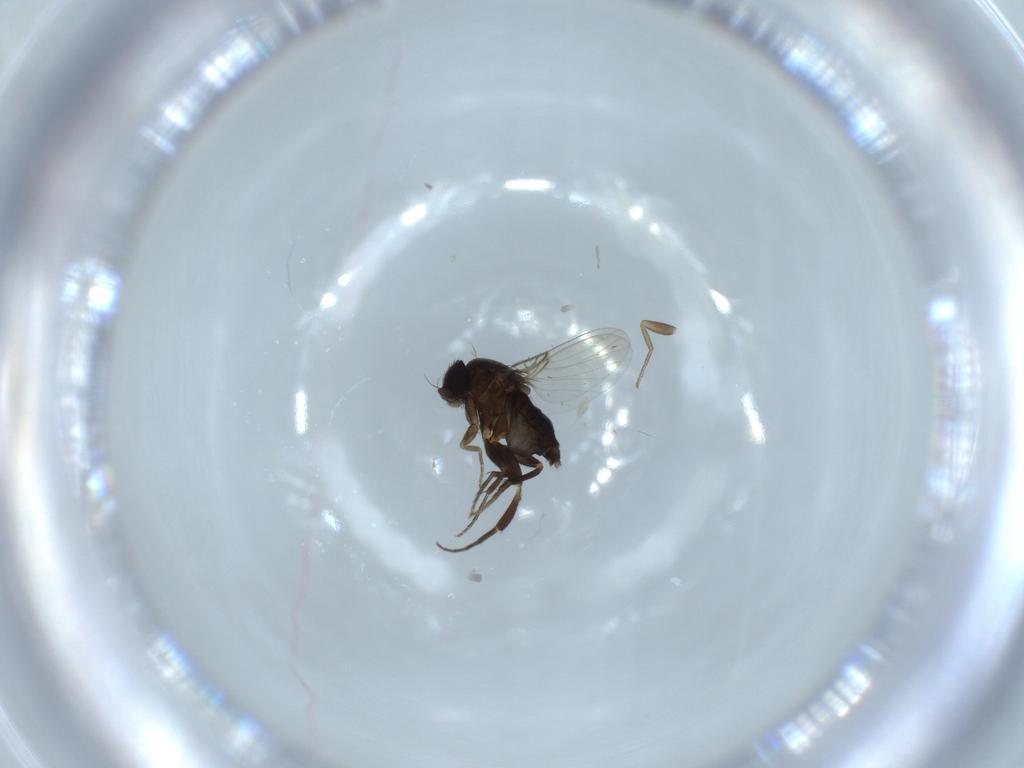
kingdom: Animalia
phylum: Arthropoda
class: Insecta
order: Diptera
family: Phoridae
